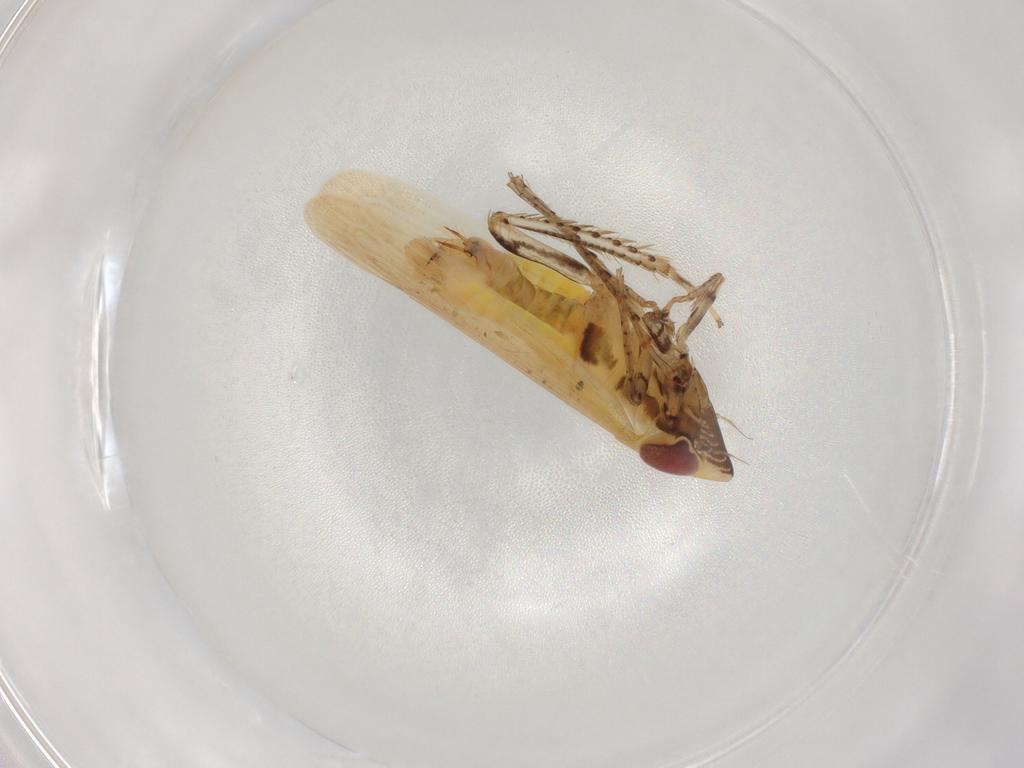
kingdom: Animalia
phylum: Arthropoda
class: Insecta
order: Hemiptera
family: Cicadellidae
